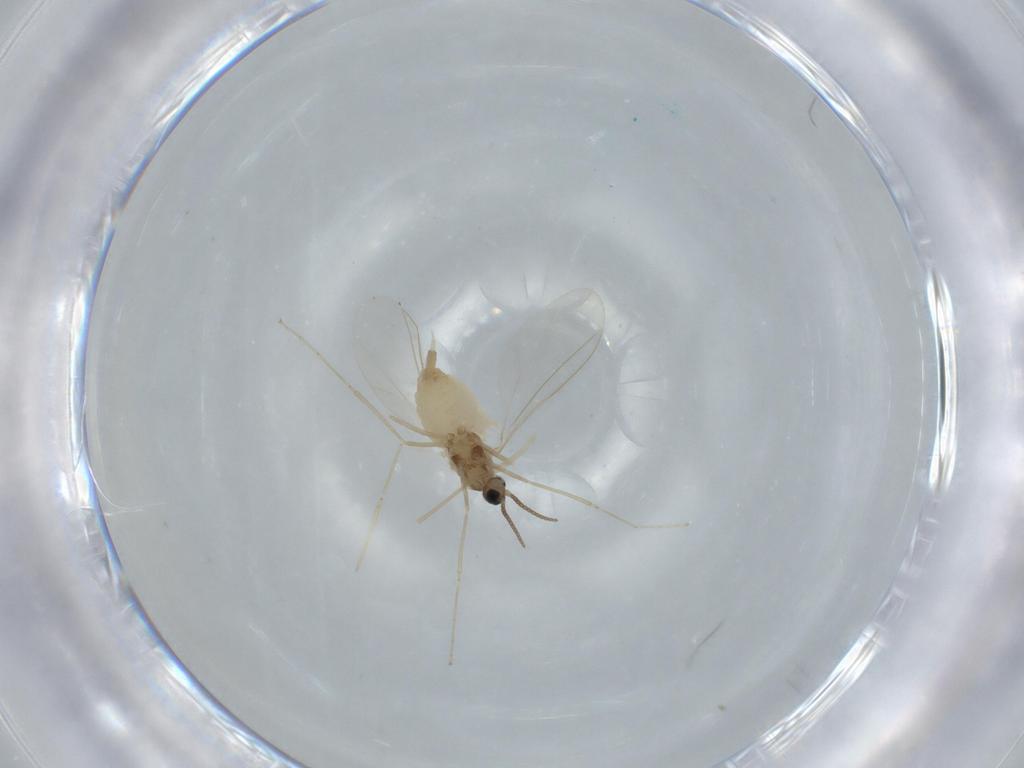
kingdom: Animalia
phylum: Arthropoda
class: Insecta
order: Diptera
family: Cecidomyiidae
